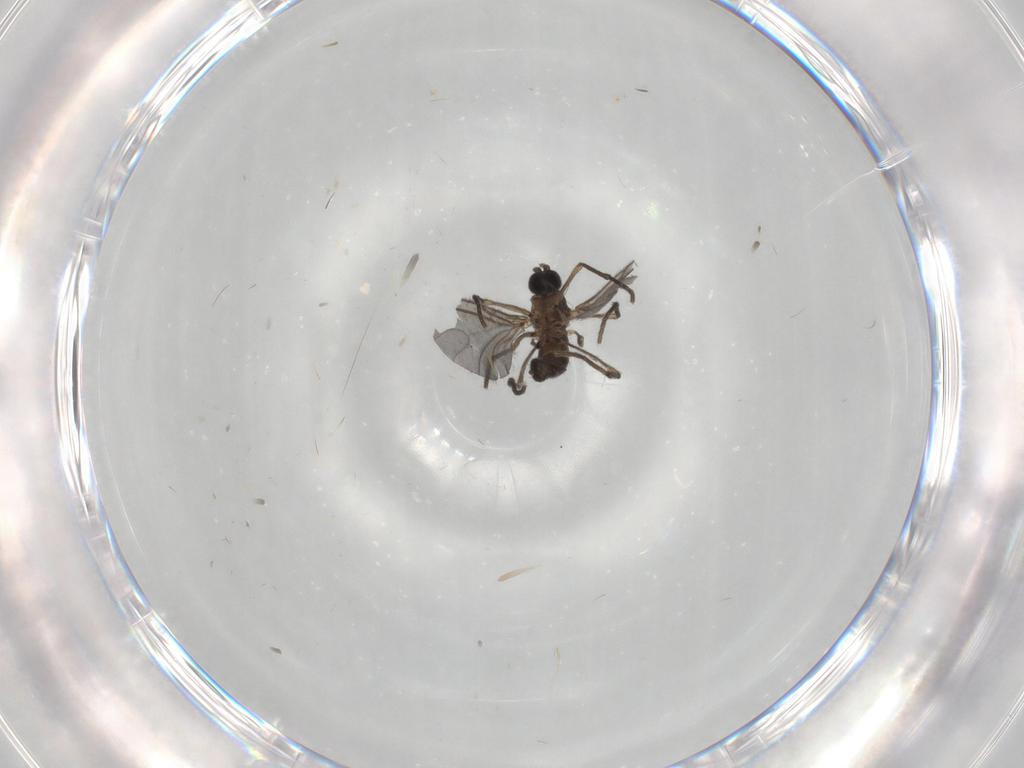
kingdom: Animalia
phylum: Arthropoda
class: Insecta
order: Diptera
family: Sciaridae
